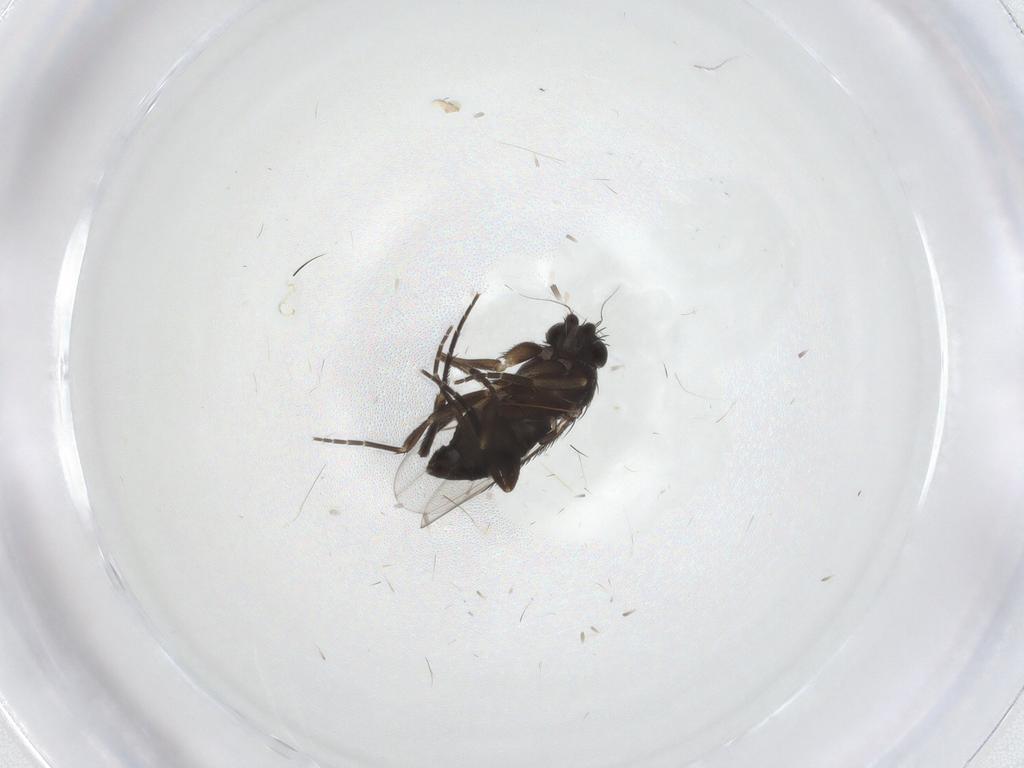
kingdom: Animalia
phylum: Arthropoda
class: Insecta
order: Diptera
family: Phoridae
